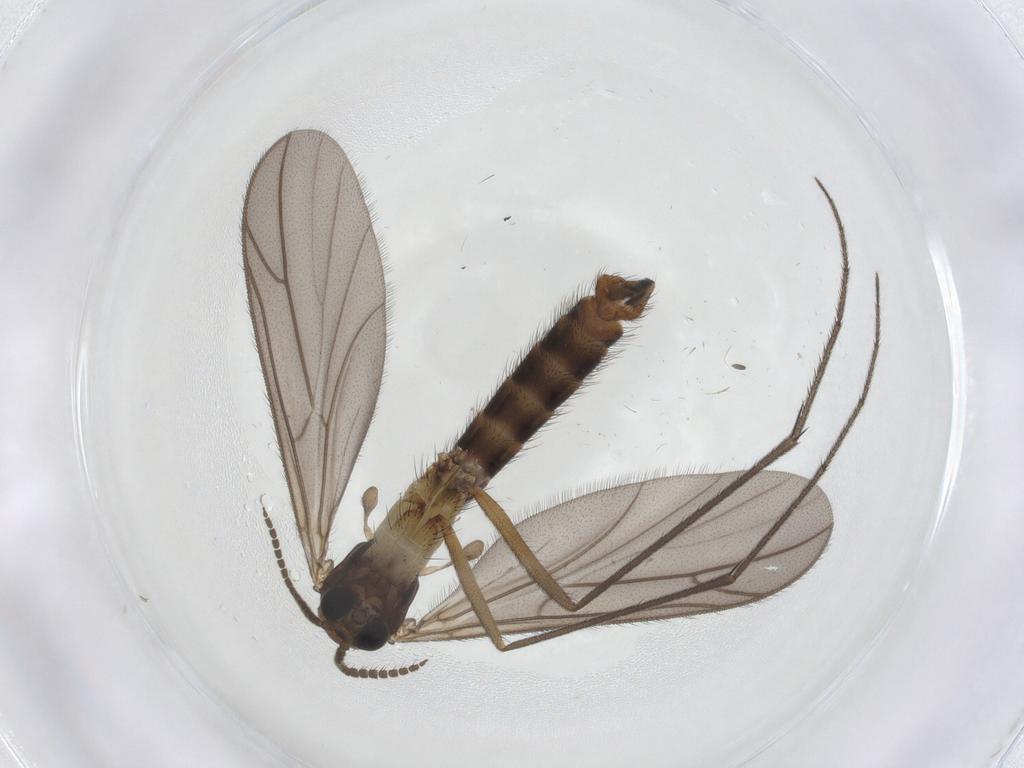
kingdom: Animalia
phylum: Arthropoda
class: Insecta
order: Diptera
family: Ditomyiidae
